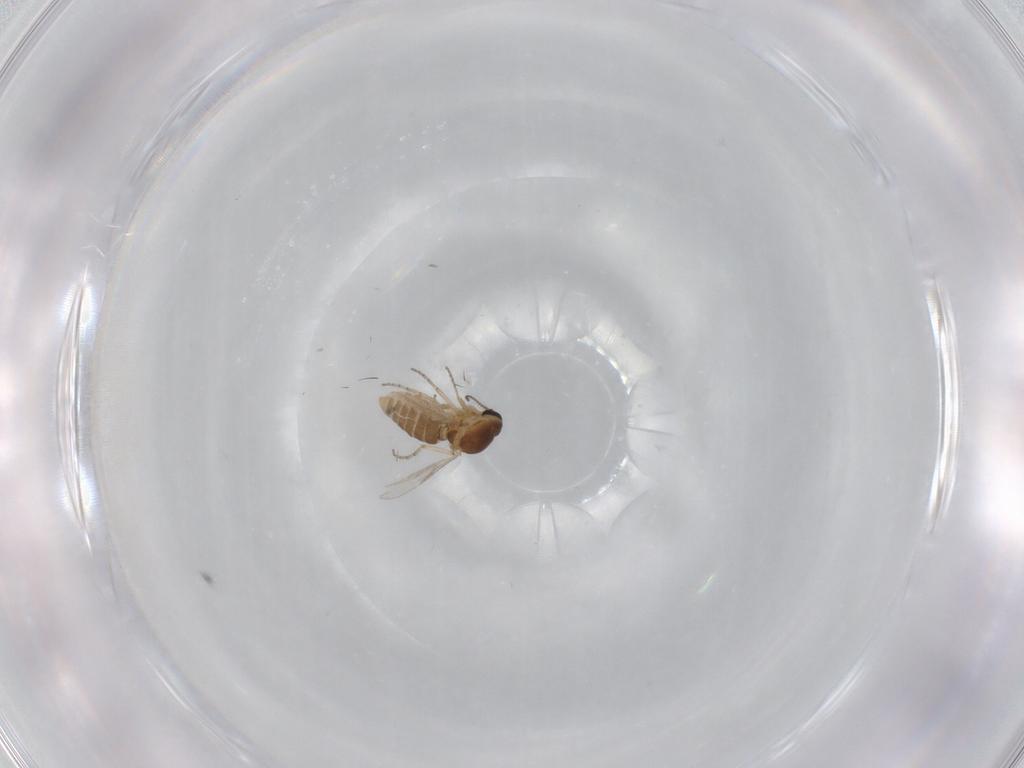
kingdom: Animalia
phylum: Arthropoda
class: Insecta
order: Diptera
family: Ceratopogonidae
